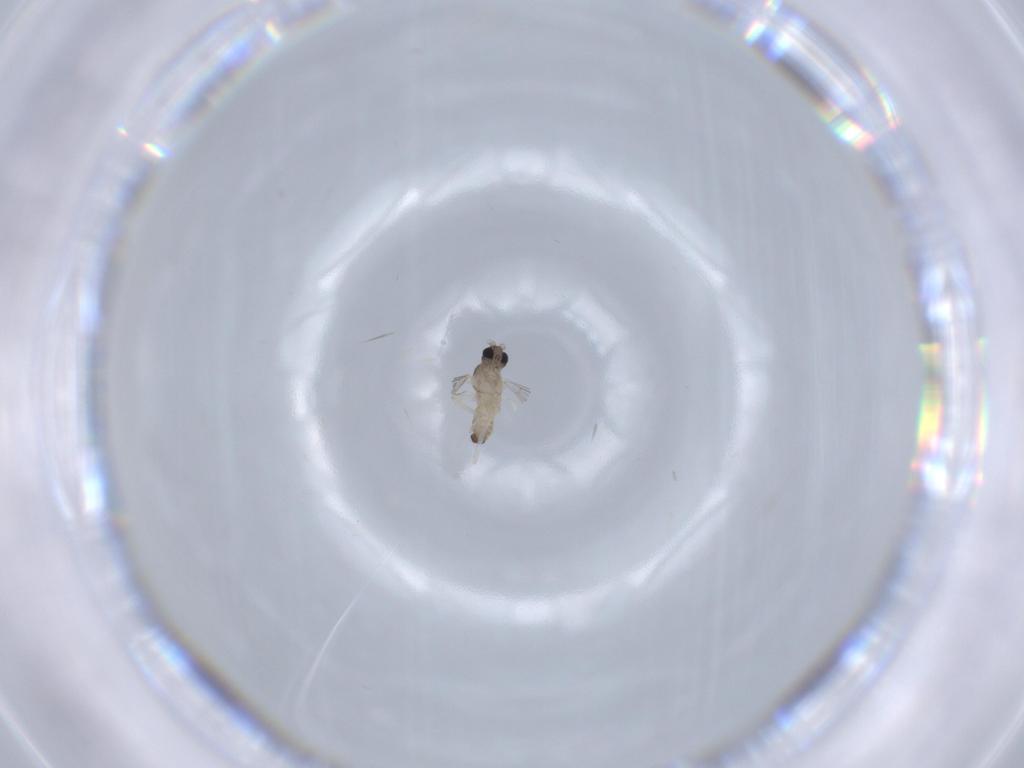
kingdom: Animalia
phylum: Arthropoda
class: Insecta
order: Diptera
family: Cecidomyiidae
